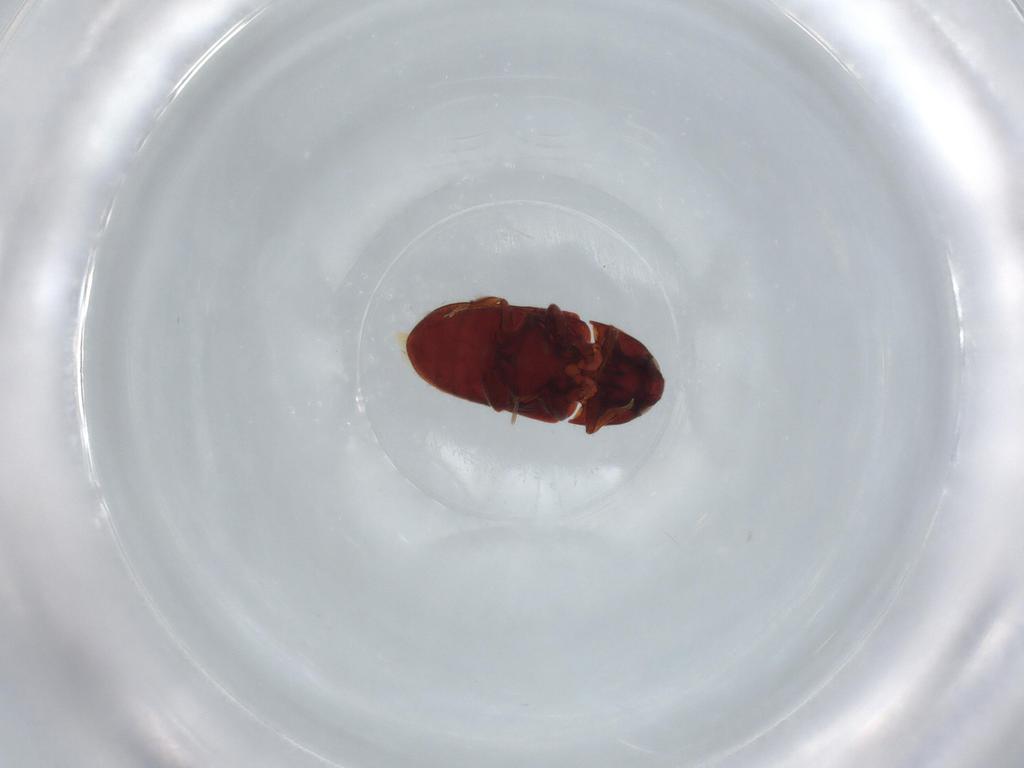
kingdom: Animalia
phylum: Arthropoda
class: Insecta
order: Coleoptera
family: Throscidae
